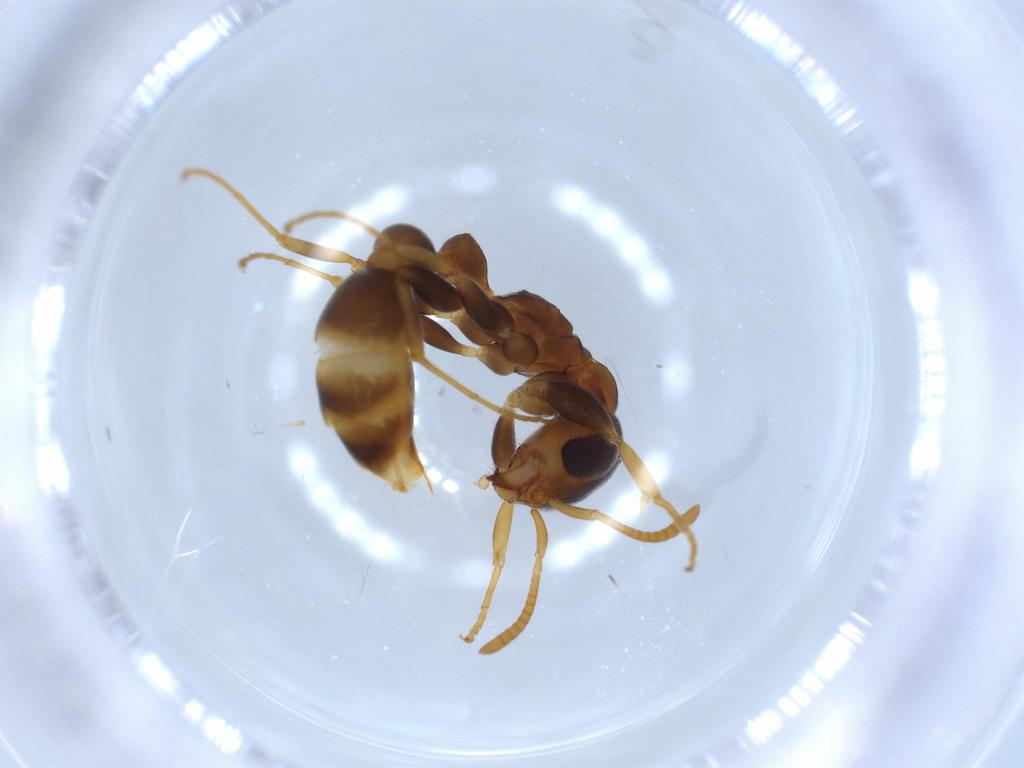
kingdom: Animalia
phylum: Arthropoda
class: Insecta
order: Hymenoptera
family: Formicidae
